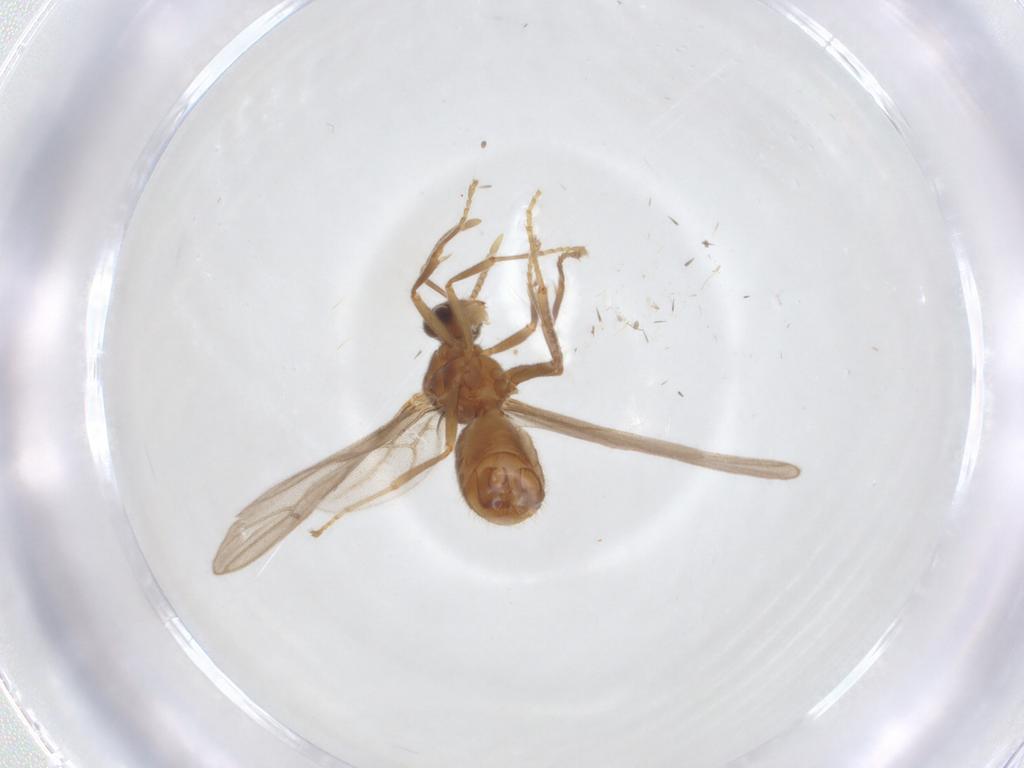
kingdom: Animalia
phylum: Arthropoda
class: Insecta
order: Hymenoptera
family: Formicidae
